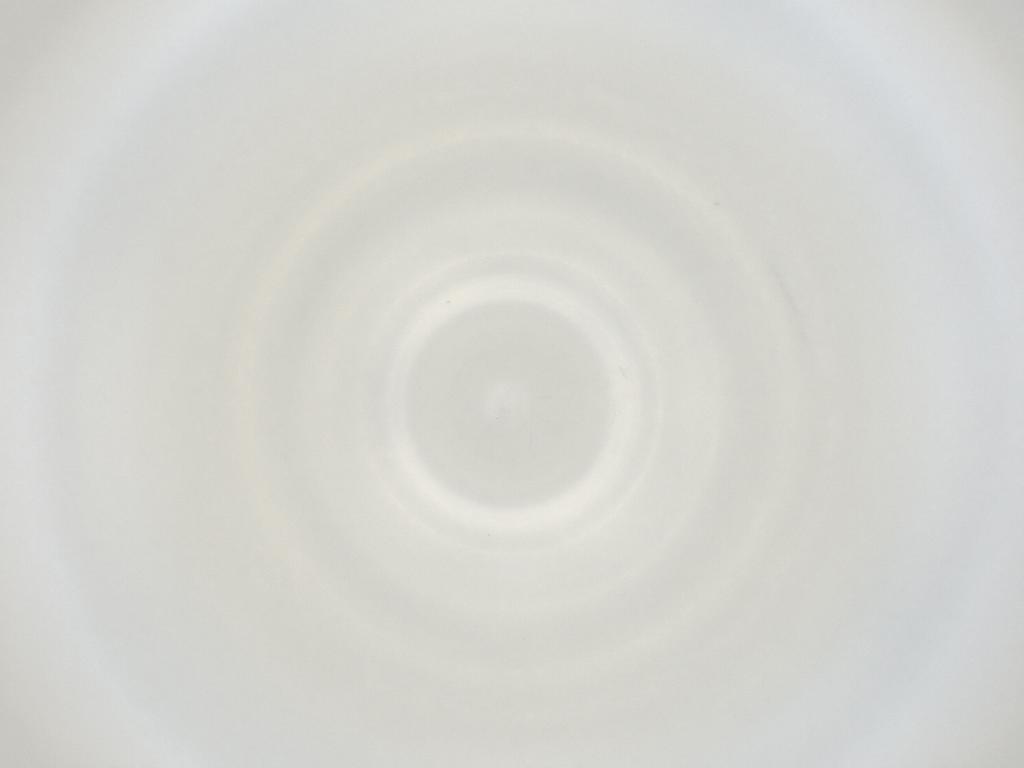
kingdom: Animalia
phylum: Arthropoda
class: Insecta
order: Diptera
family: Cecidomyiidae
